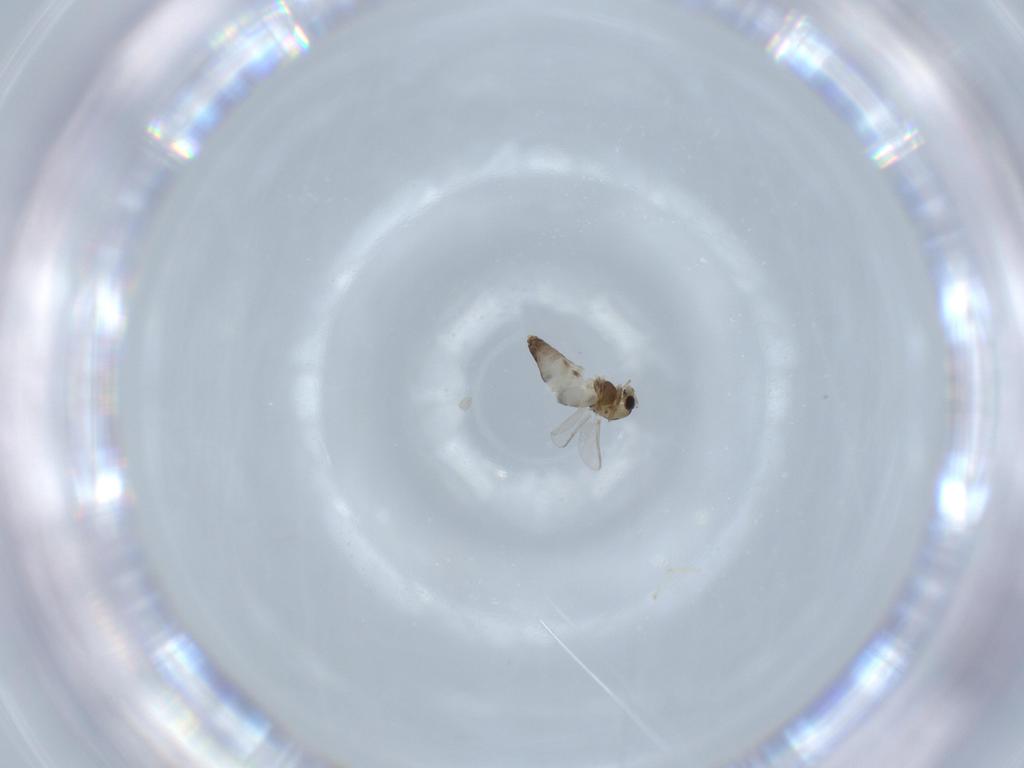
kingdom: Animalia
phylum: Arthropoda
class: Insecta
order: Diptera
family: Chironomidae
